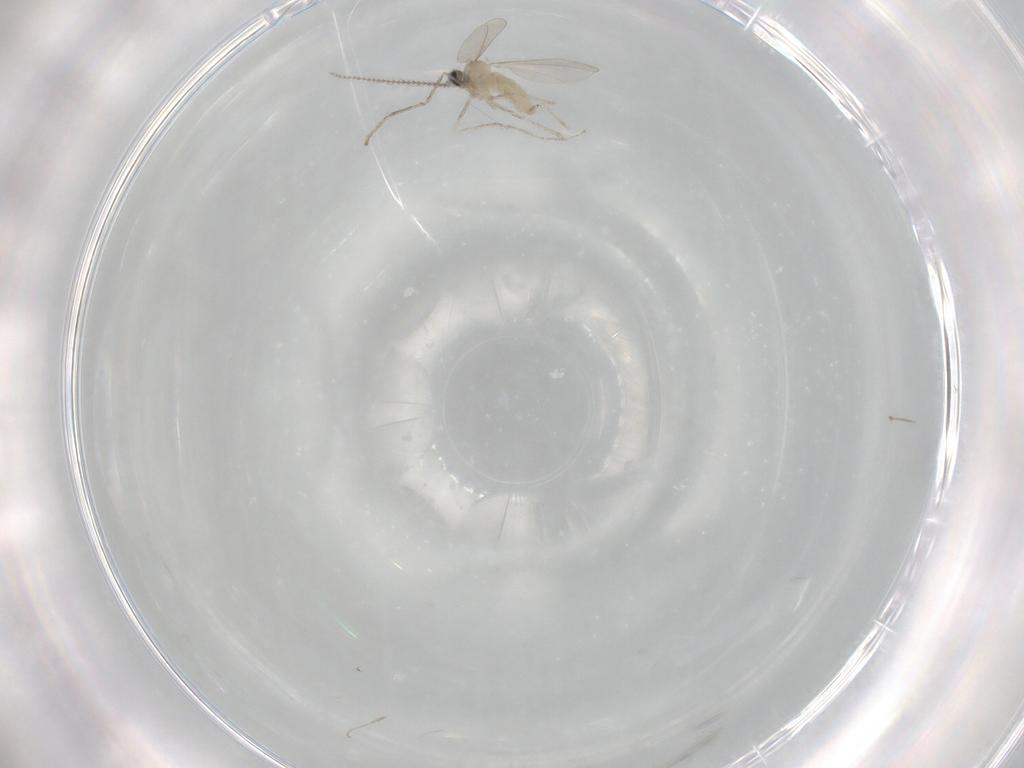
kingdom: Animalia
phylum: Arthropoda
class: Insecta
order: Diptera
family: Cecidomyiidae
